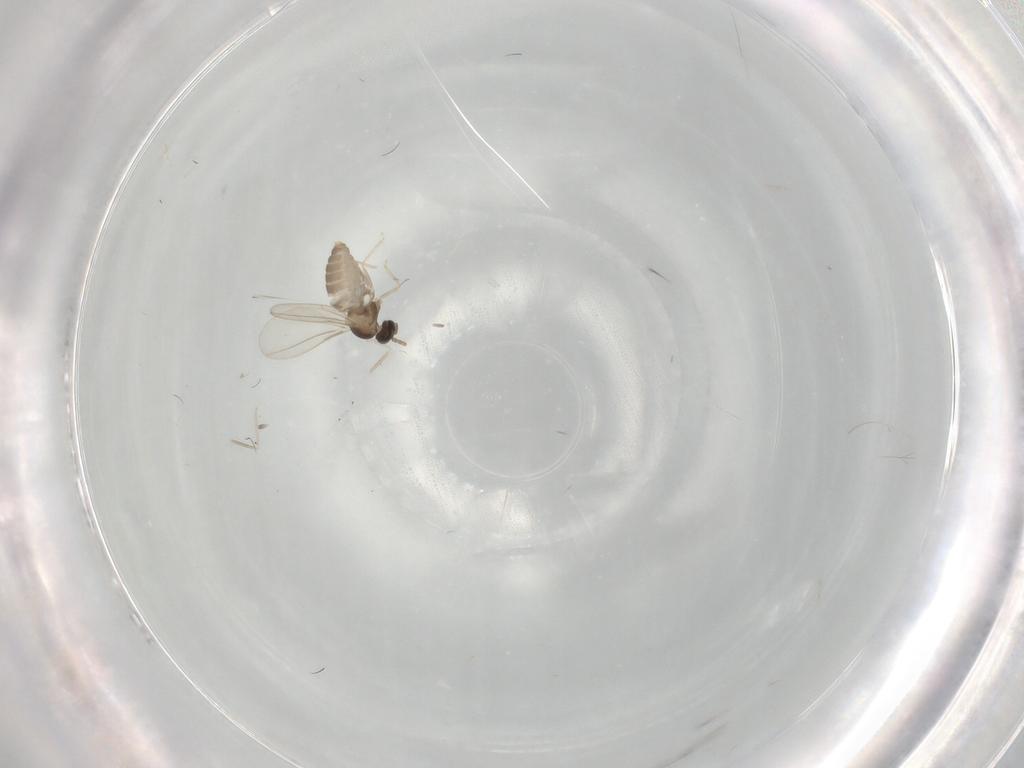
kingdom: Animalia
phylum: Arthropoda
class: Insecta
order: Diptera
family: Cecidomyiidae
